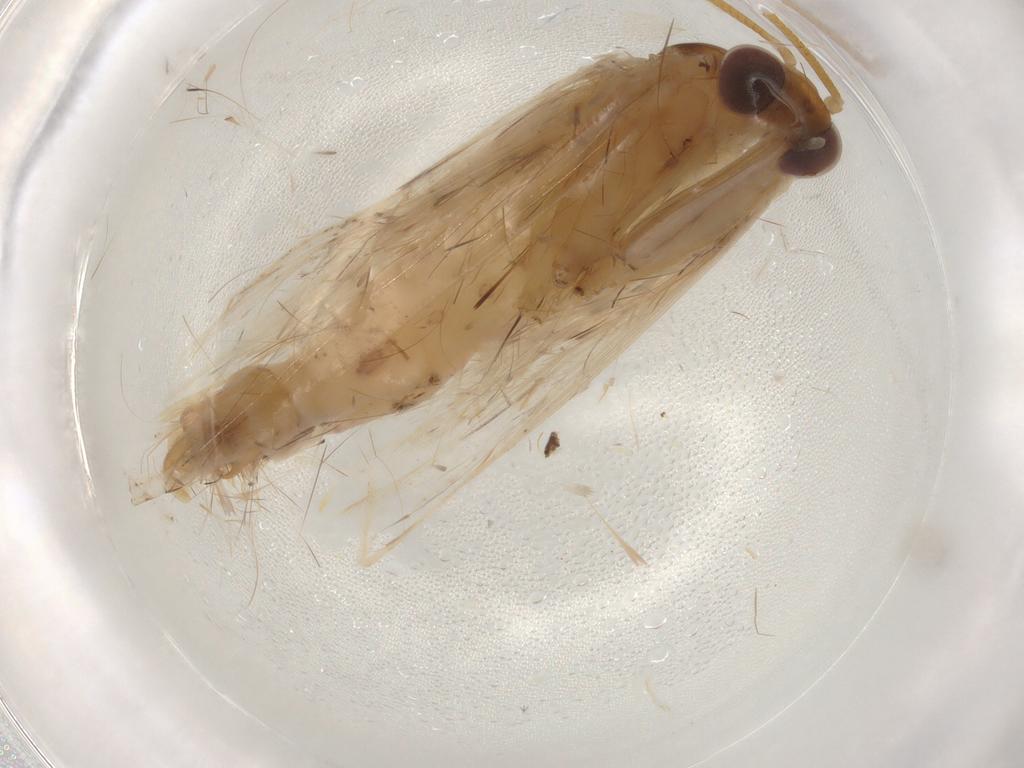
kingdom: Animalia
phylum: Arthropoda
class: Insecta
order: Lepidoptera
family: Erebidae
